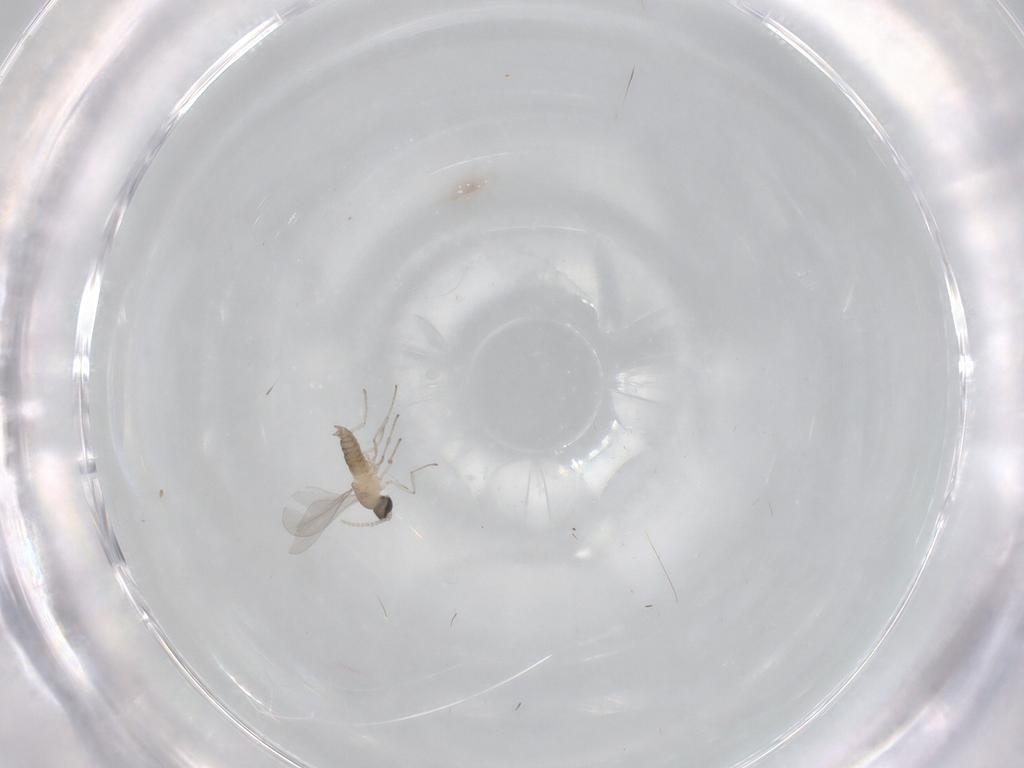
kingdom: Animalia
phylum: Arthropoda
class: Insecta
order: Diptera
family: Cecidomyiidae
